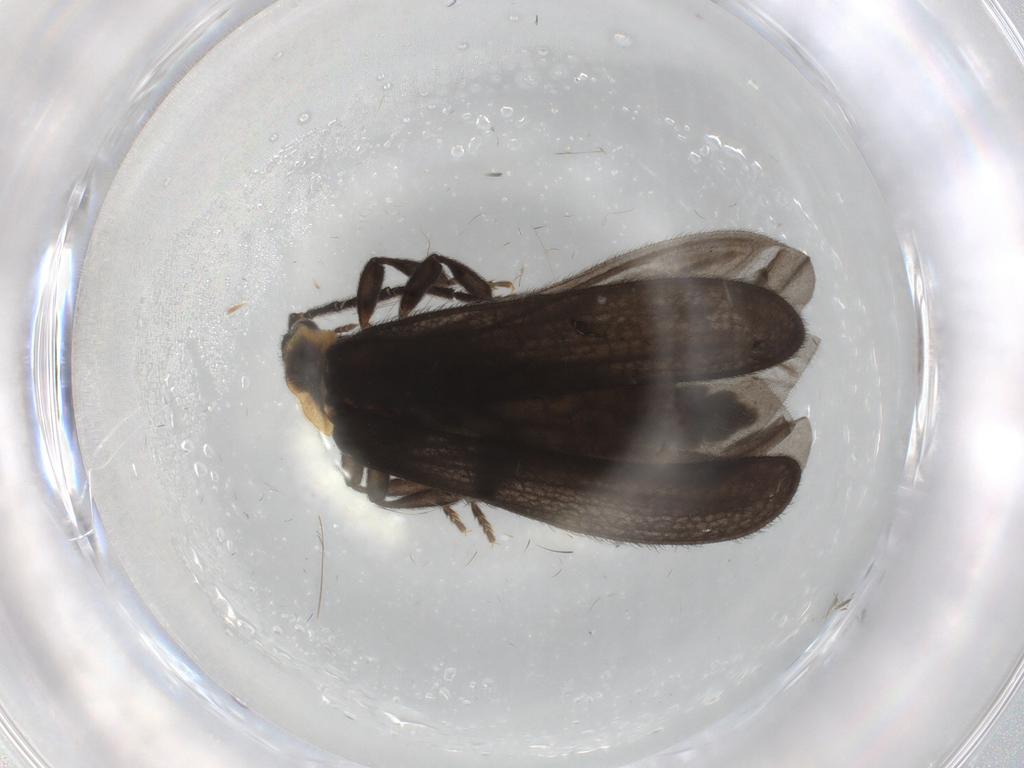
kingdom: Animalia
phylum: Arthropoda
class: Insecta
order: Coleoptera
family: Lycidae
